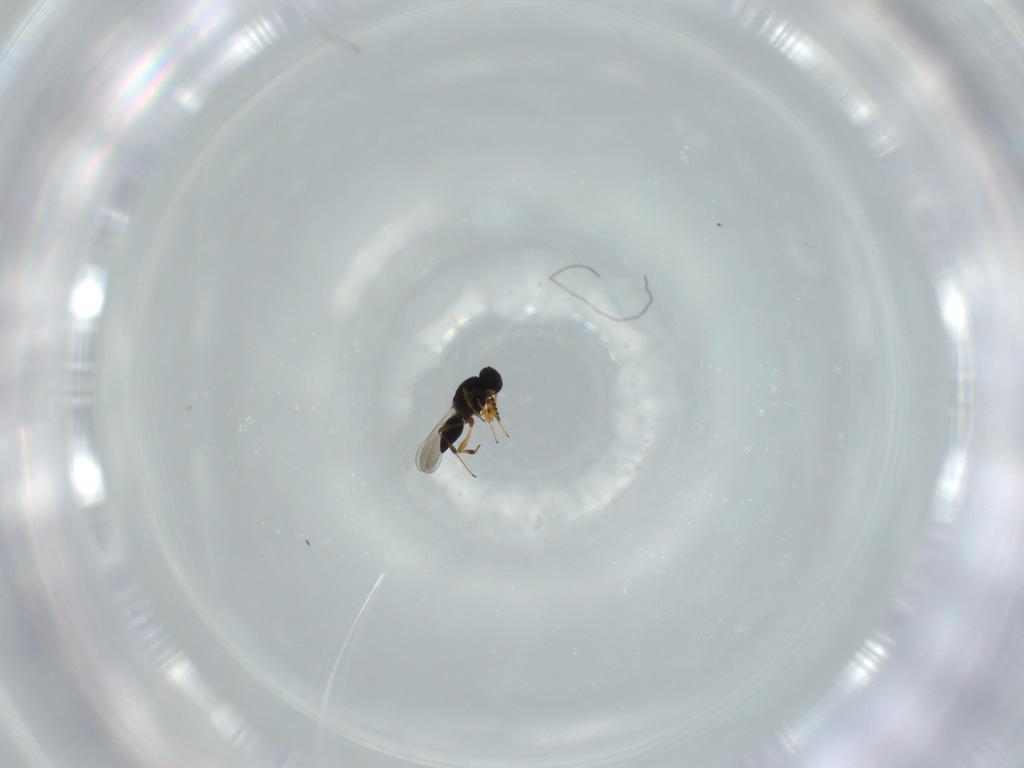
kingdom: Animalia
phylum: Arthropoda
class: Insecta
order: Hymenoptera
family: Platygastridae
